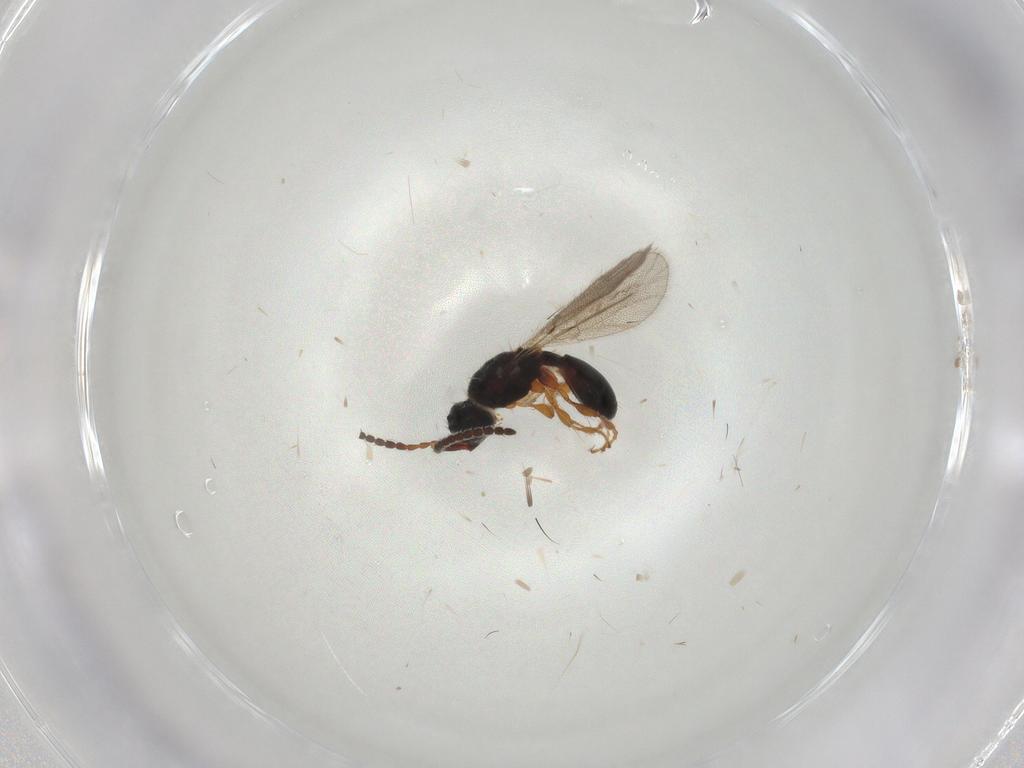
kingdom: Animalia
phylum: Arthropoda
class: Insecta
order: Hymenoptera
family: Diapriidae
